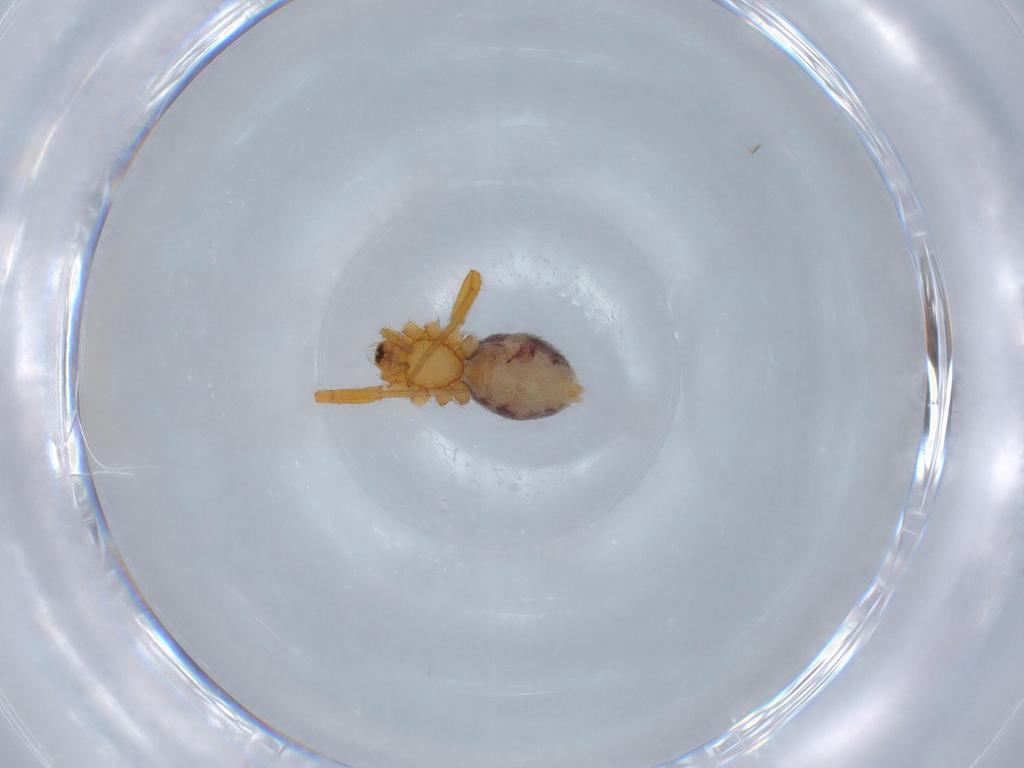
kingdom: Animalia
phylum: Arthropoda
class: Arachnida
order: Araneae
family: Oonopidae
